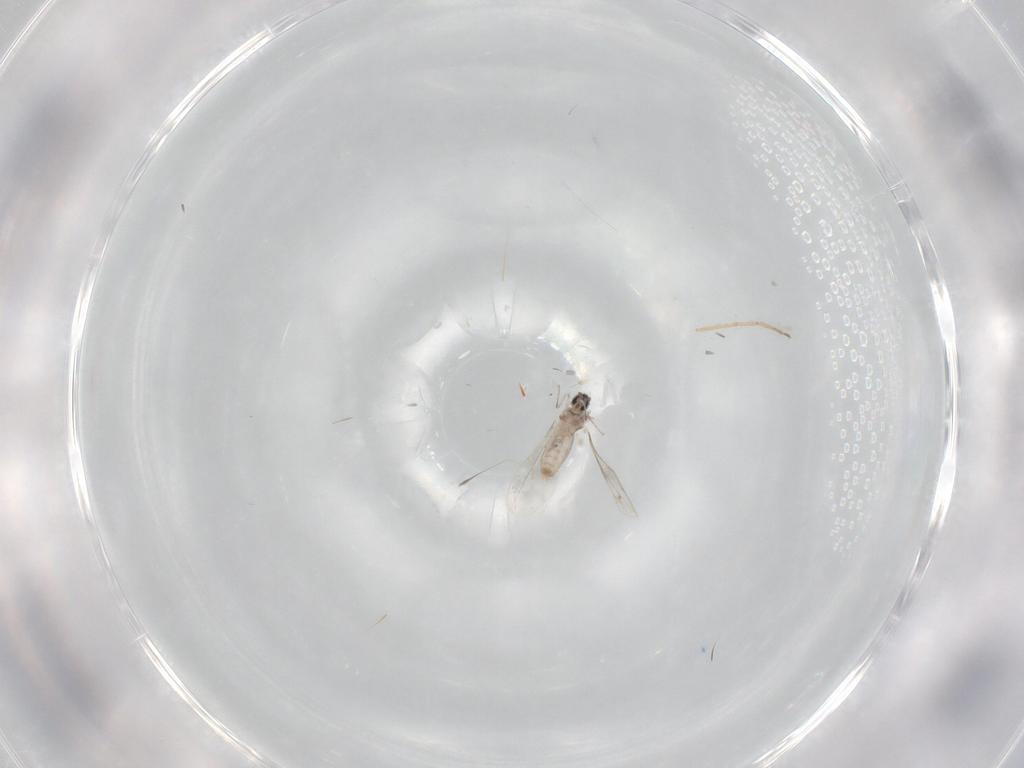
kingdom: Animalia
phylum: Arthropoda
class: Insecta
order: Diptera
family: Cecidomyiidae
